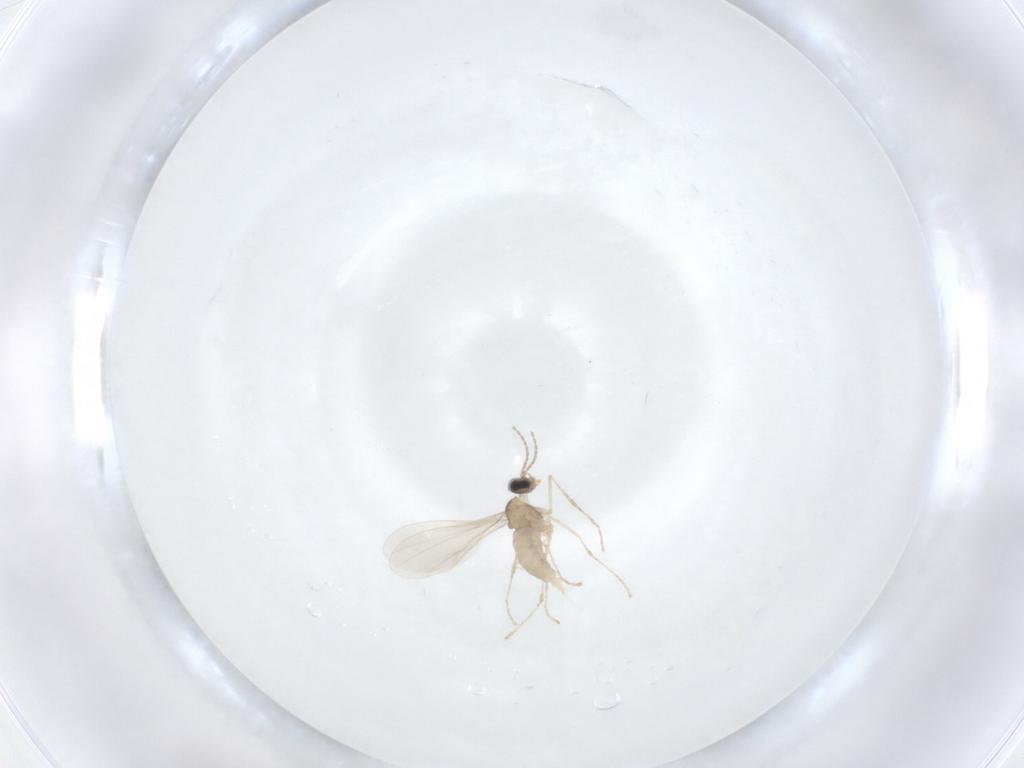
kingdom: Animalia
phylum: Arthropoda
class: Insecta
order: Diptera
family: Cecidomyiidae
